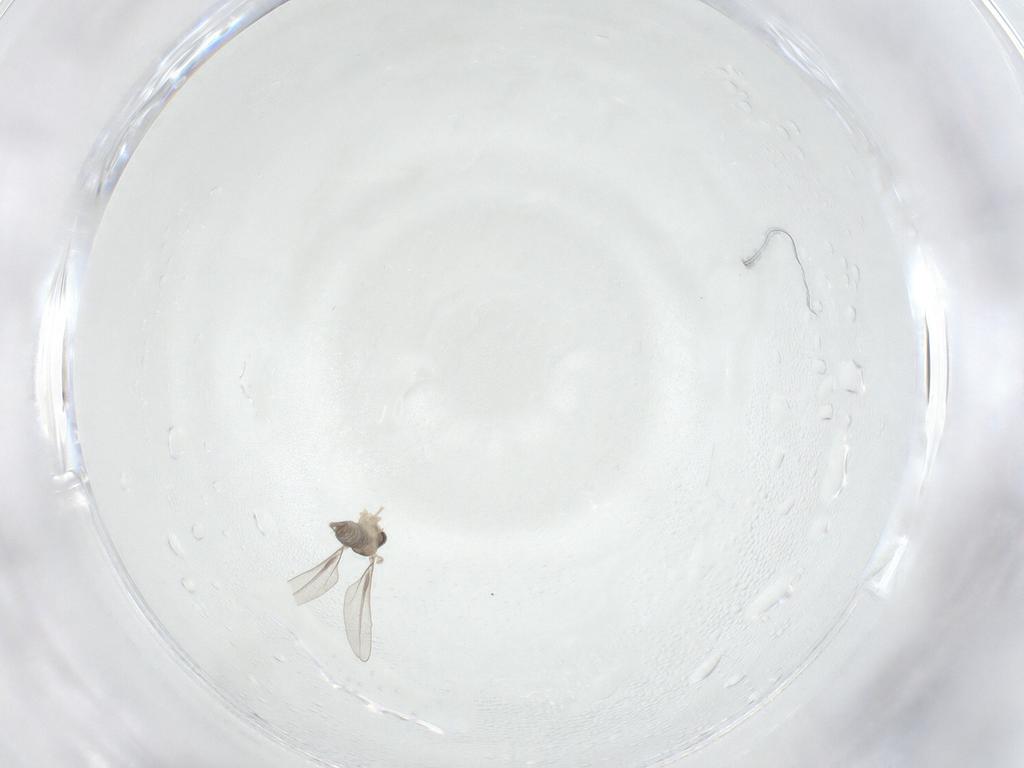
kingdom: Animalia
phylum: Arthropoda
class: Insecta
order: Diptera
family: Cecidomyiidae
